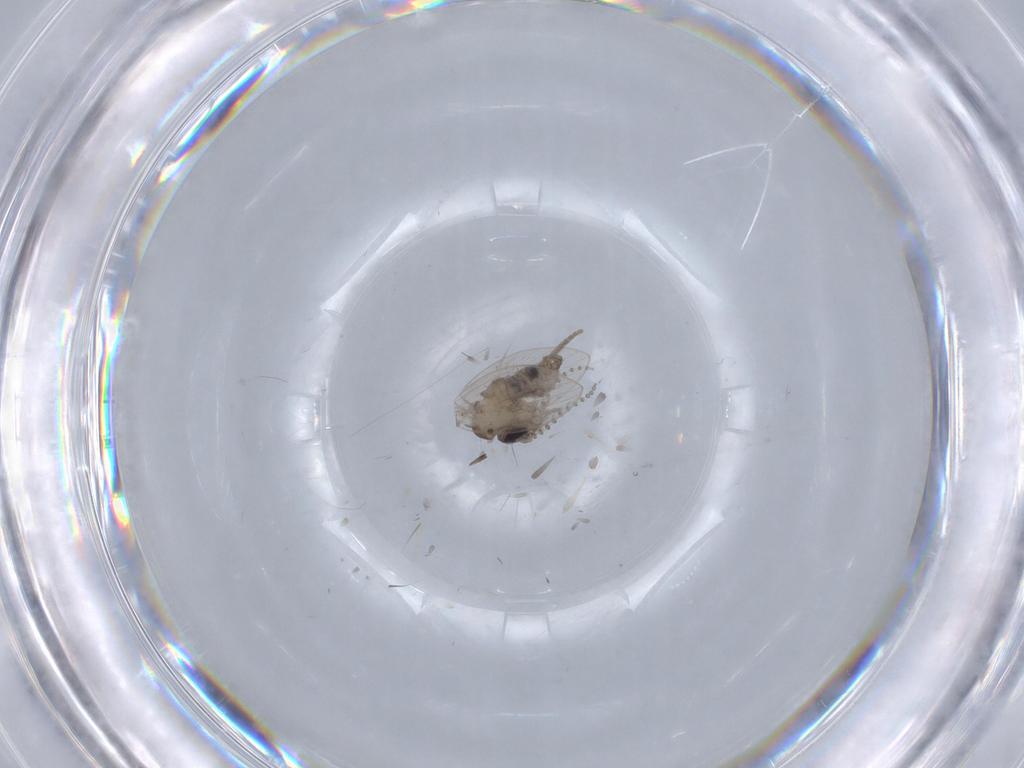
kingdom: Animalia
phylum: Arthropoda
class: Insecta
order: Diptera
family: Psychodidae
